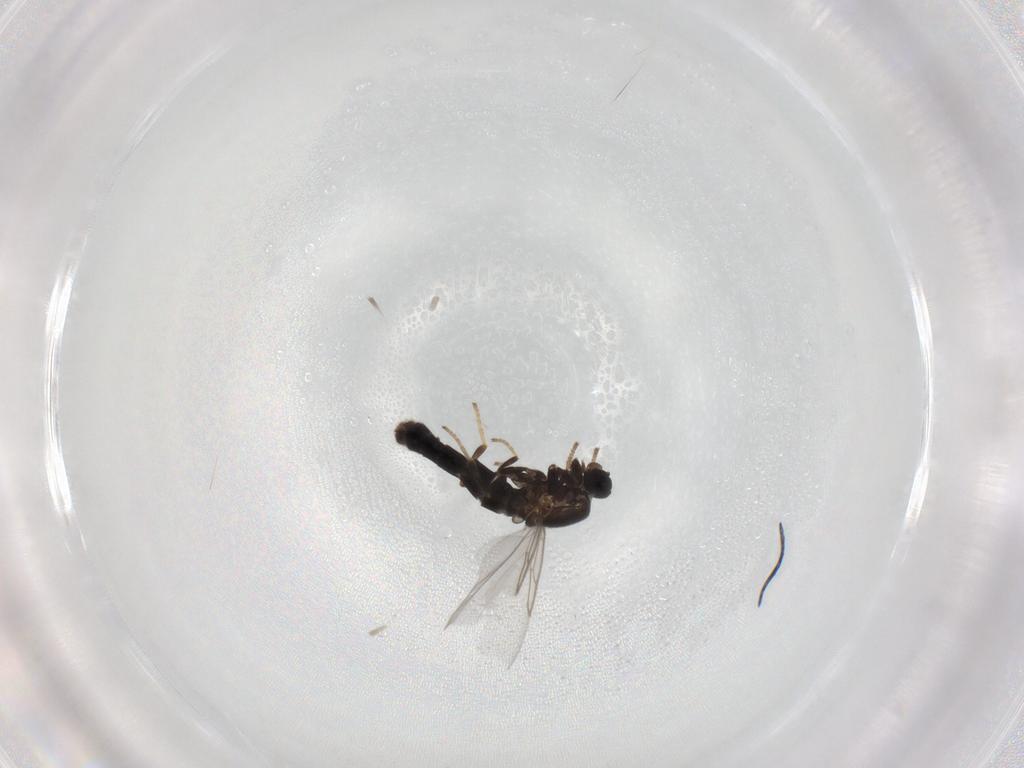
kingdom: Animalia
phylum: Arthropoda
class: Insecta
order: Diptera
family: Scatopsidae
